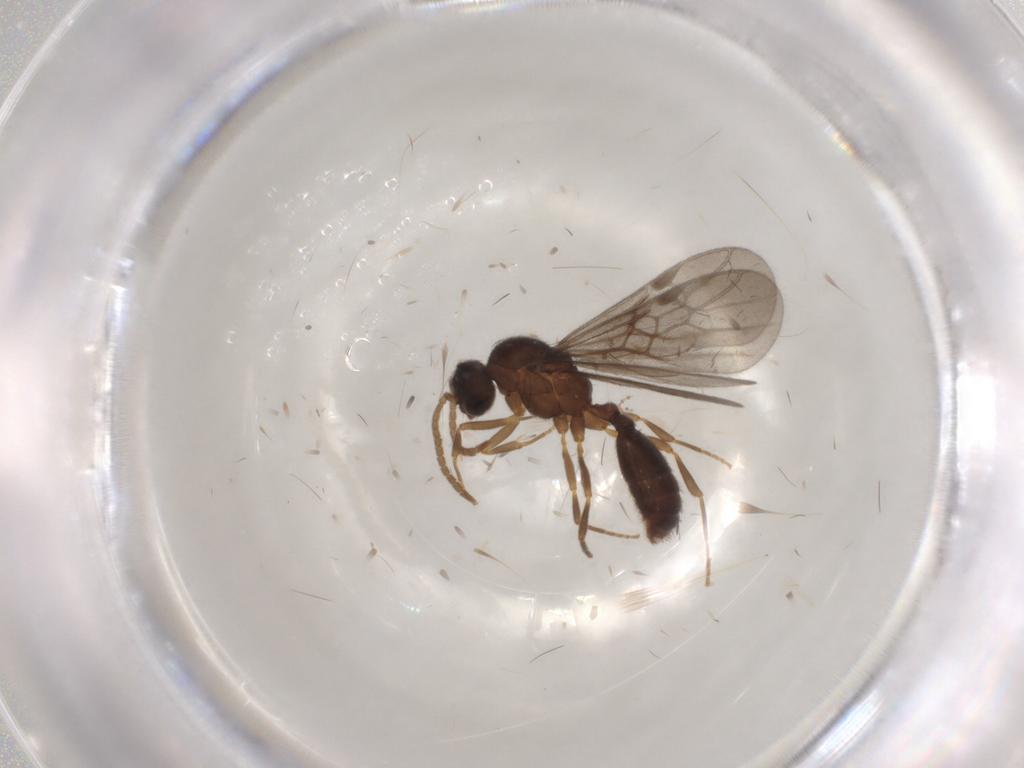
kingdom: Animalia
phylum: Arthropoda
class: Insecta
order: Hymenoptera
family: Formicidae
